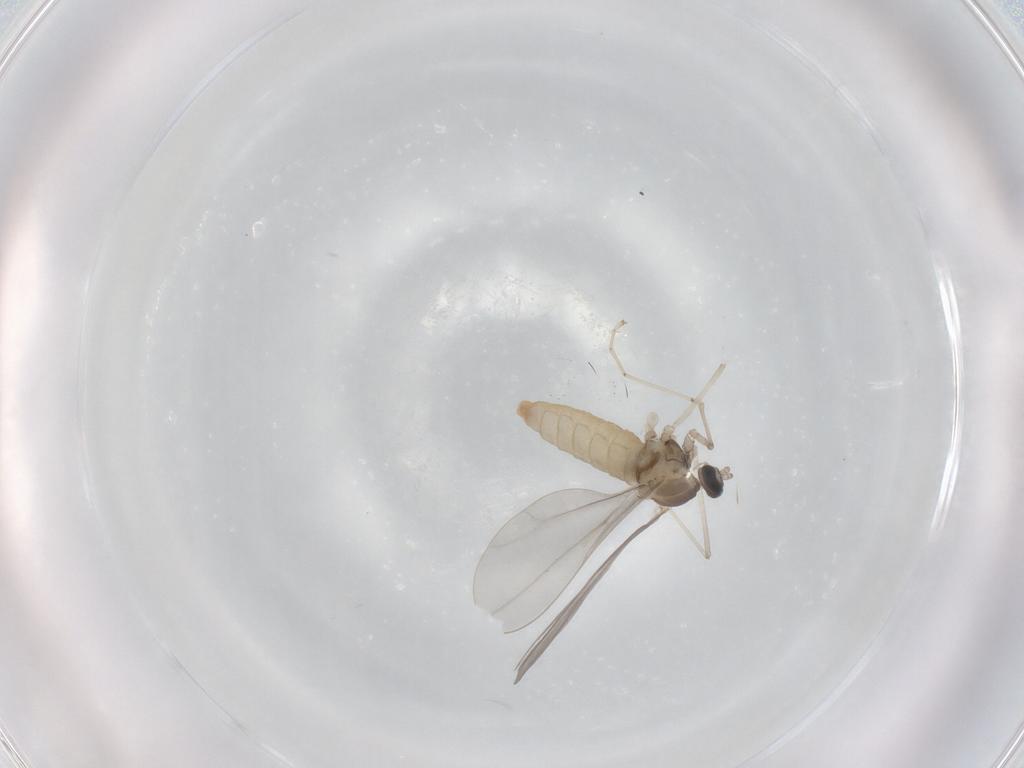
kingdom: Animalia
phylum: Arthropoda
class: Insecta
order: Diptera
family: Cecidomyiidae
